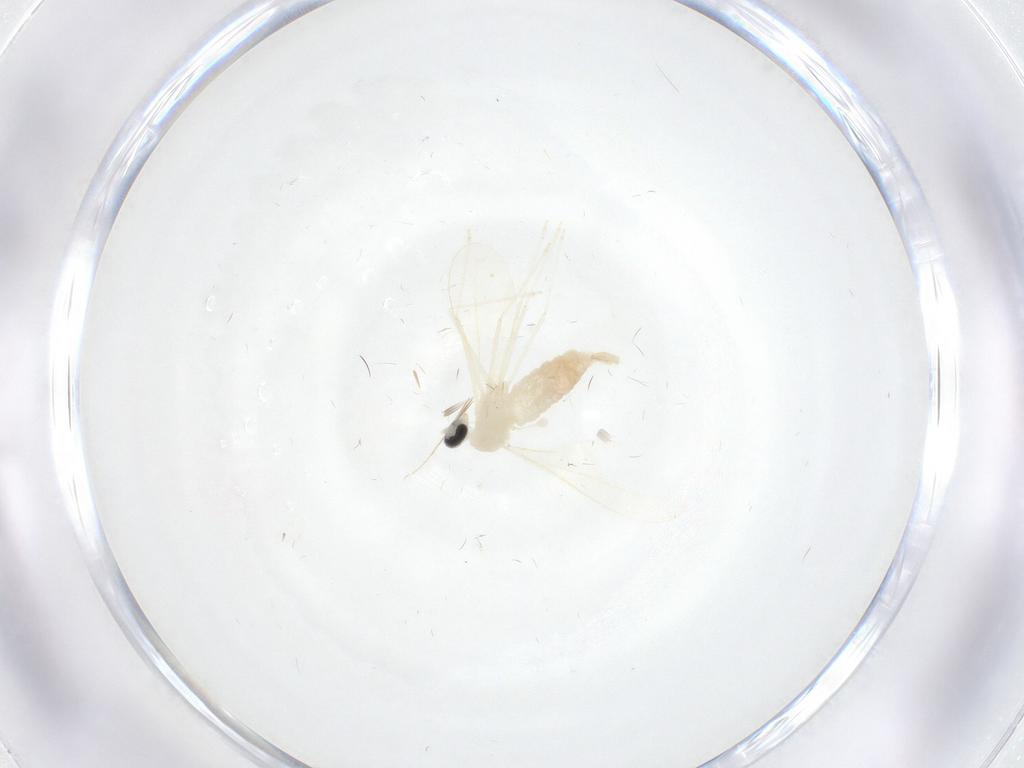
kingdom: Animalia
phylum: Arthropoda
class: Insecta
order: Diptera
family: Cecidomyiidae
